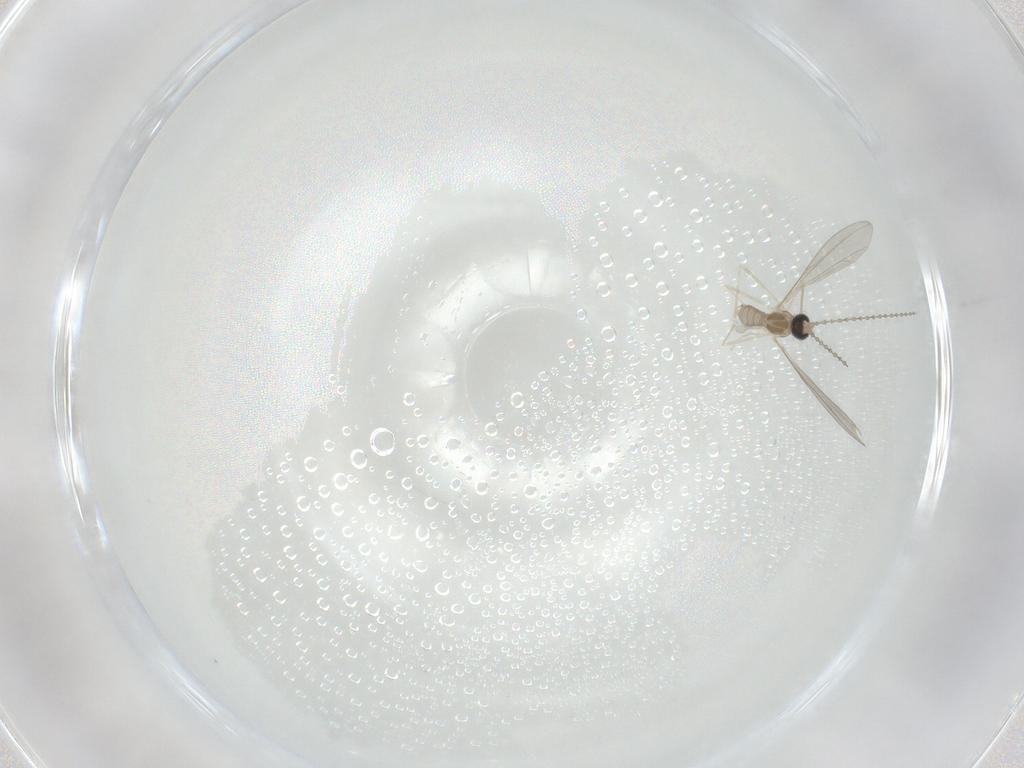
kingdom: Animalia
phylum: Arthropoda
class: Insecta
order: Diptera
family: Cecidomyiidae
